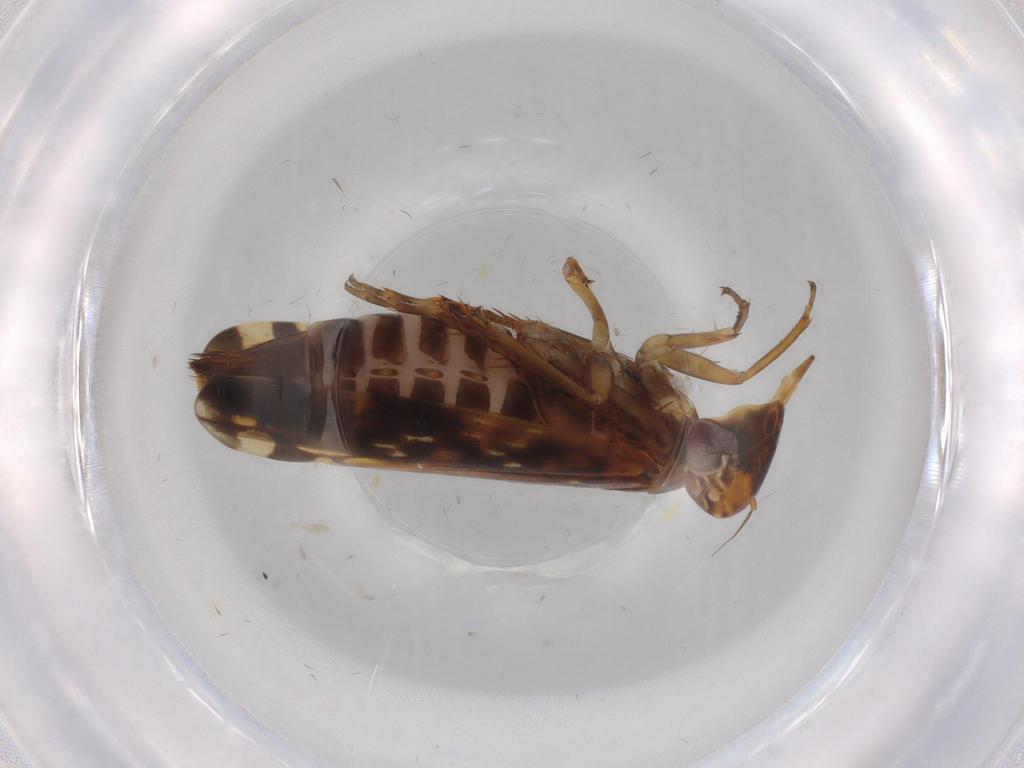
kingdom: Animalia
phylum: Arthropoda
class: Insecta
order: Hemiptera
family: Cicadellidae
